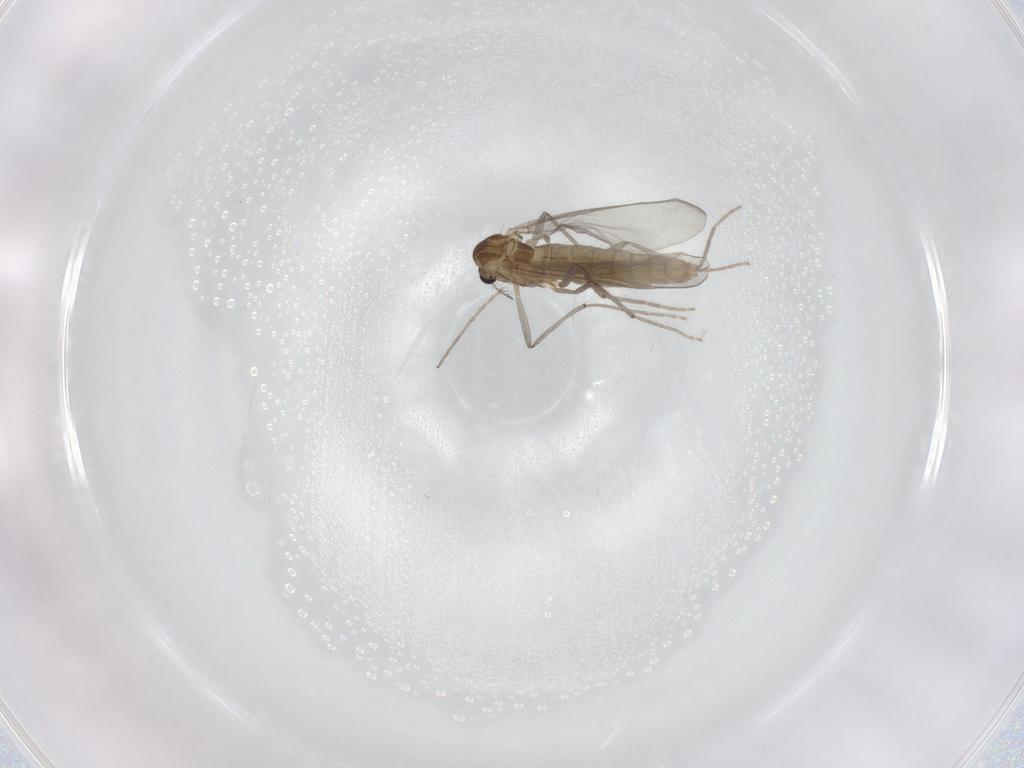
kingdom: Animalia
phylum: Arthropoda
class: Insecta
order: Diptera
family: Chironomidae
